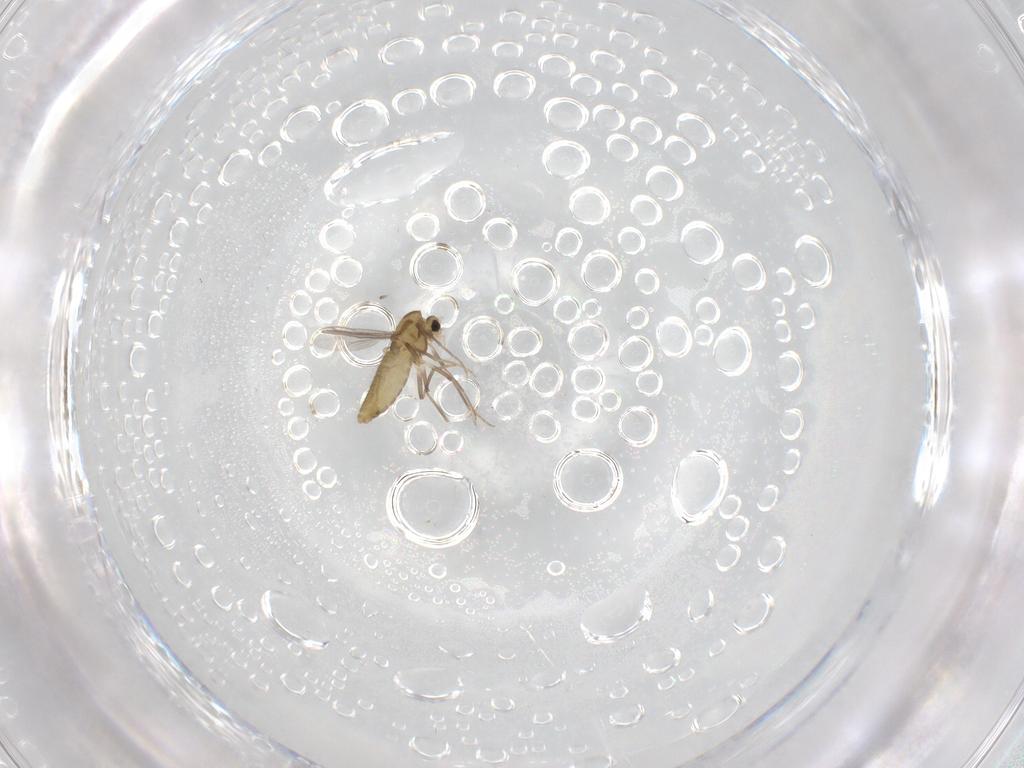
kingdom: Animalia
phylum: Arthropoda
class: Insecta
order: Diptera
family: Chironomidae
